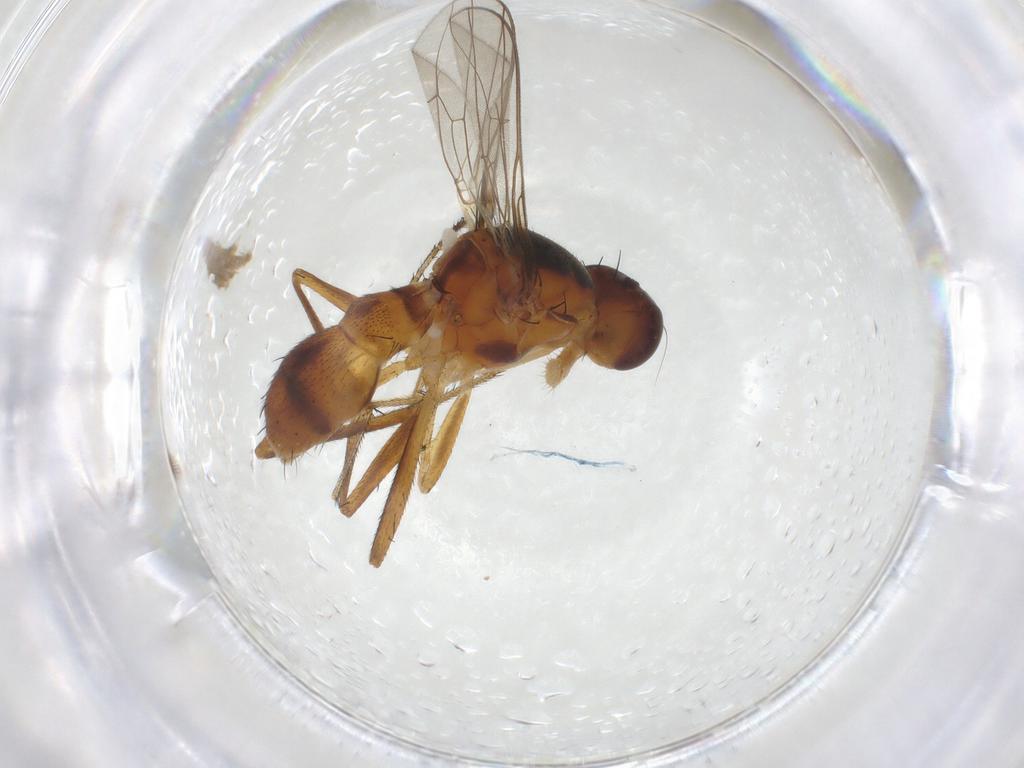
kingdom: Animalia
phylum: Arthropoda
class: Insecta
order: Diptera
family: Sepsidae
